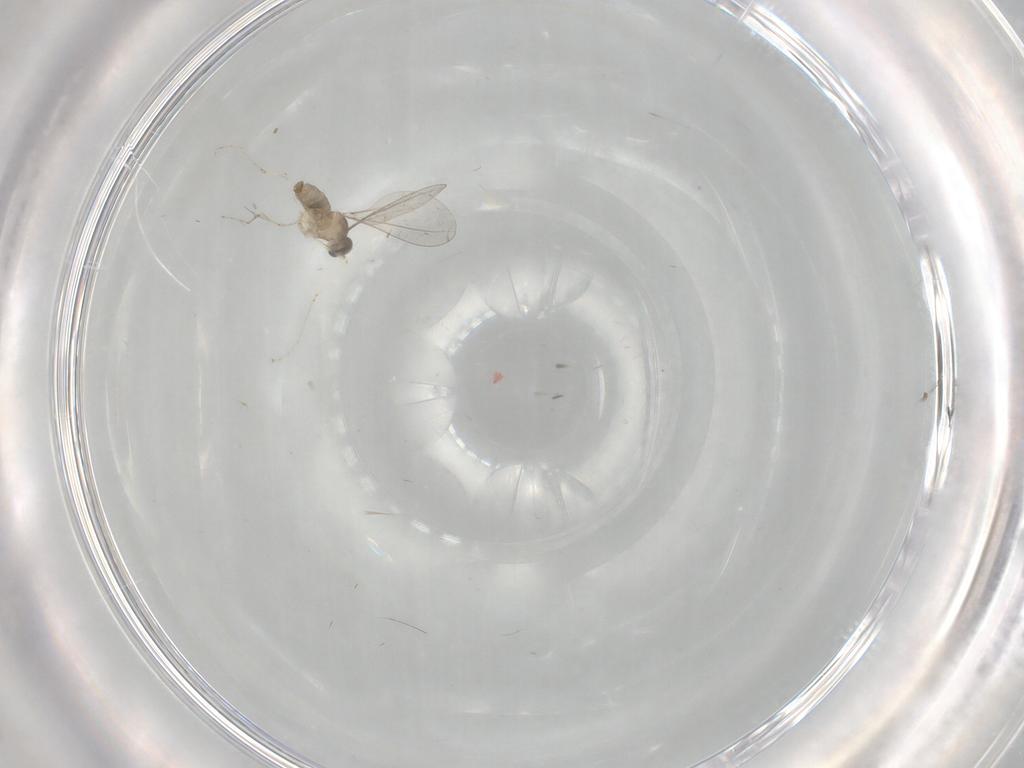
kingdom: Animalia
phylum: Arthropoda
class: Insecta
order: Diptera
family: Cecidomyiidae
